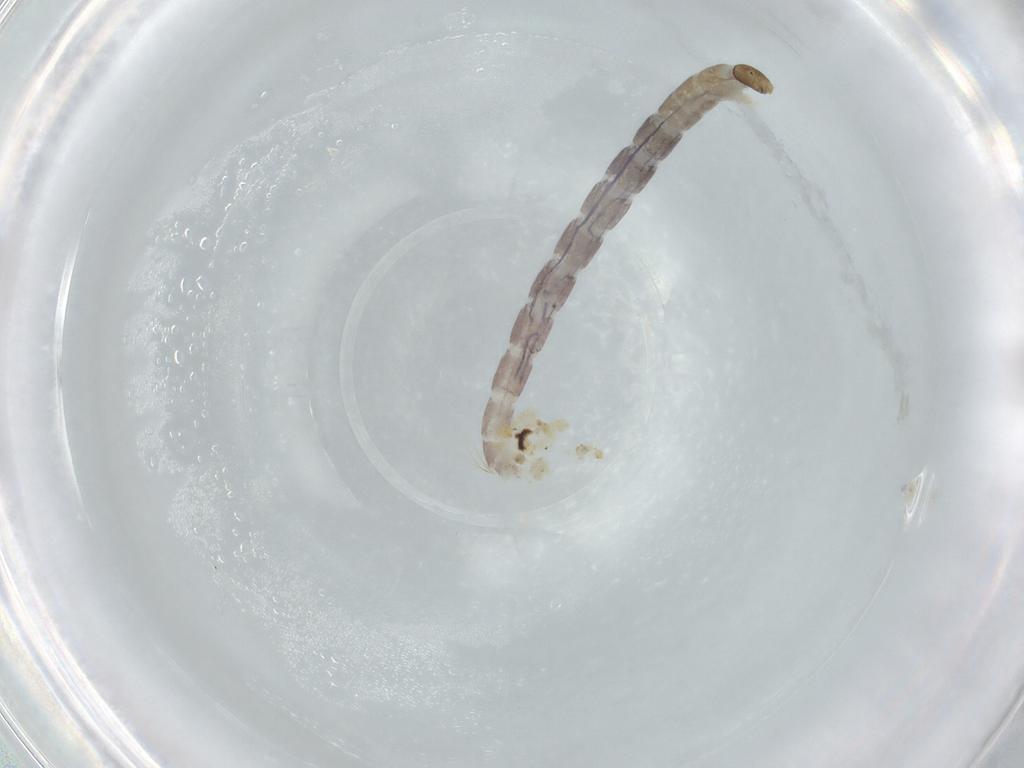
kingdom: Animalia
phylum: Arthropoda
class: Insecta
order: Diptera
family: Chironomidae
